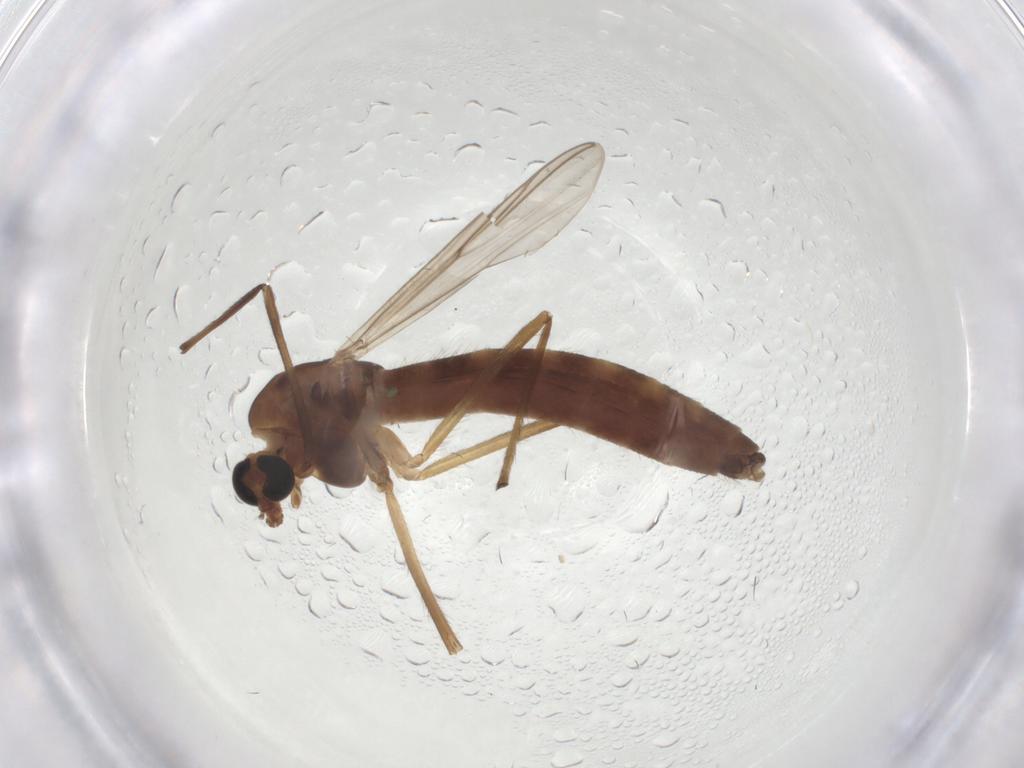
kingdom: Animalia
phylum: Arthropoda
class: Insecta
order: Diptera
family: Chironomidae
